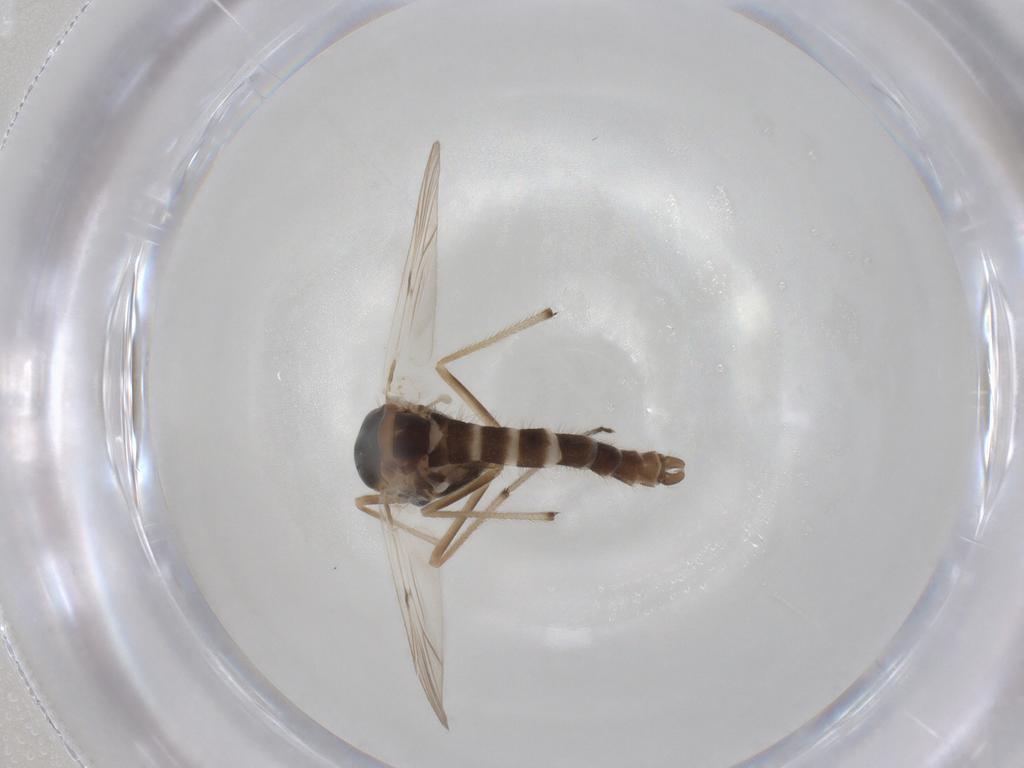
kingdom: Animalia
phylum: Arthropoda
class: Insecta
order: Diptera
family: Chironomidae
